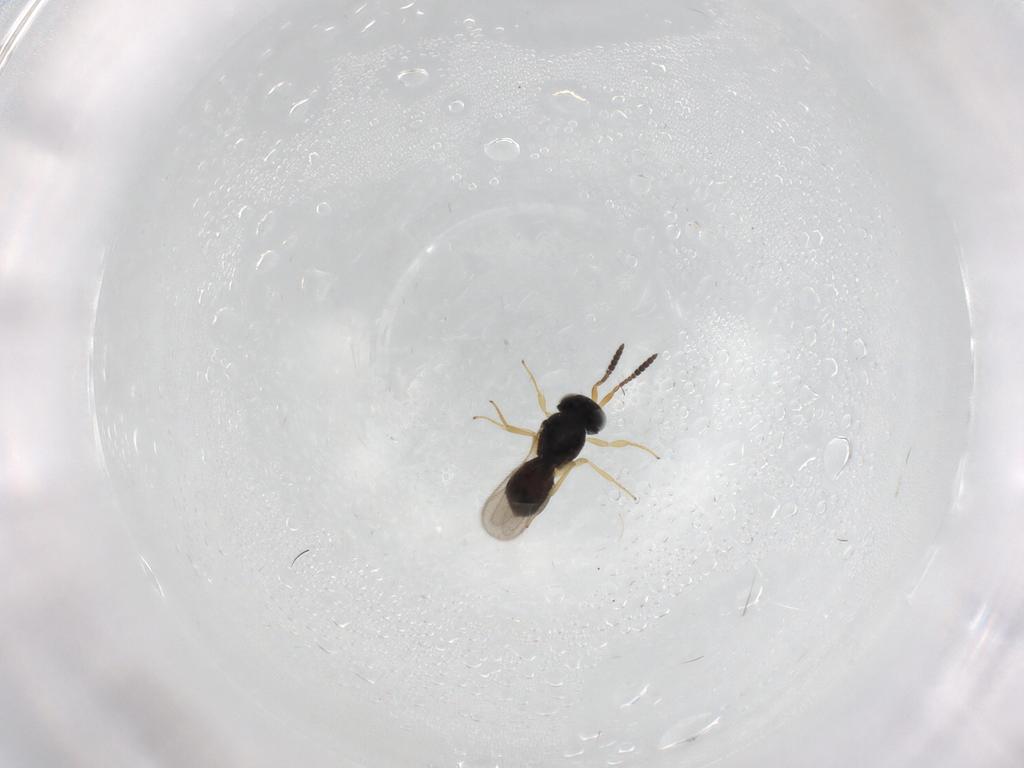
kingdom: Animalia
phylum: Arthropoda
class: Insecta
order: Hymenoptera
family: Scelionidae
